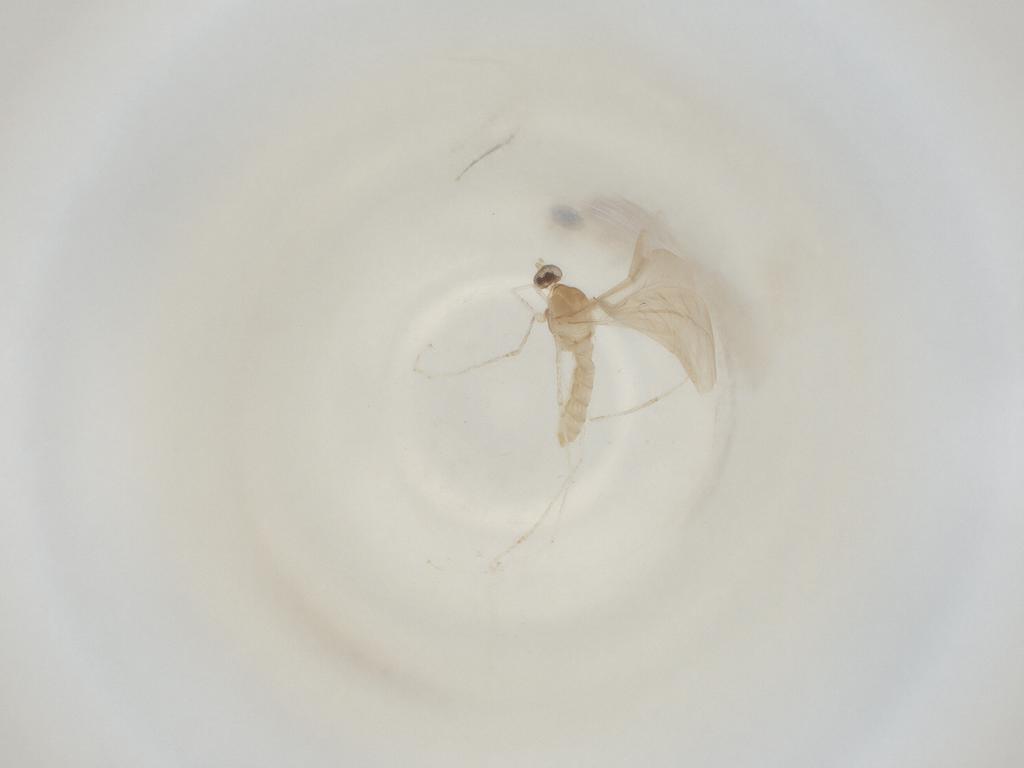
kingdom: Animalia
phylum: Arthropoda
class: Insecta
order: Diptera
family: Cecidomyiidae
